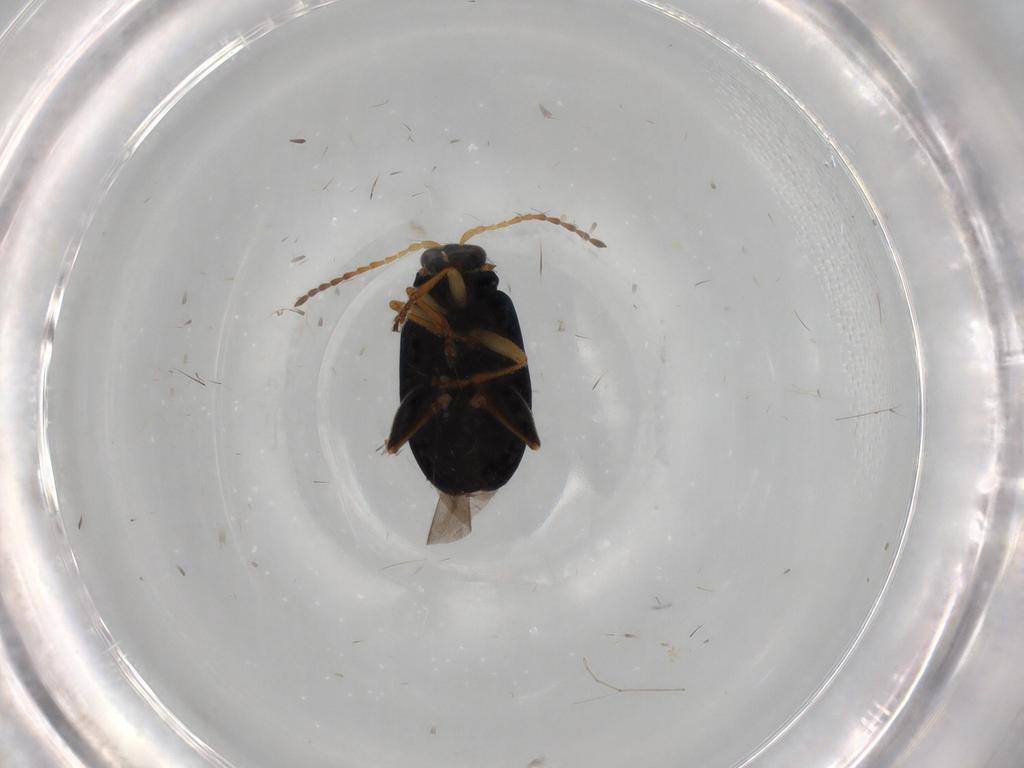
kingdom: Animalia
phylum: Arthropoda
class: Insecta
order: Coleoptera
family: Chrysomelidae
